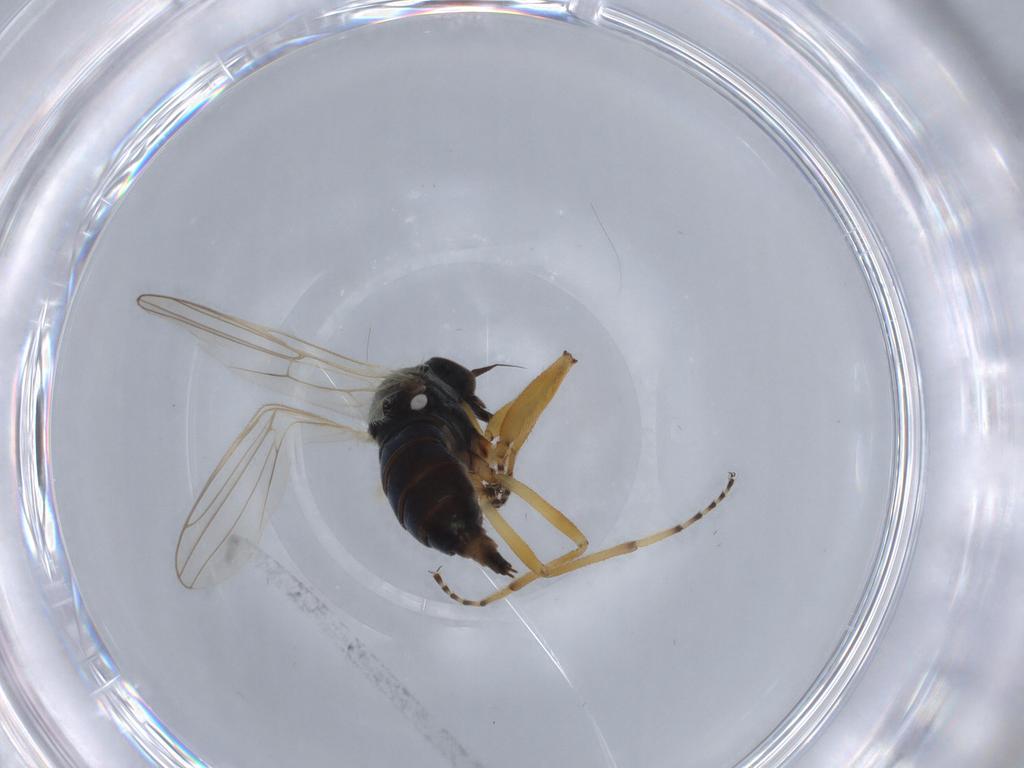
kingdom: Animalia
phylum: Arthropoda
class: Insecta
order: Diptera
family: Hybotidae
